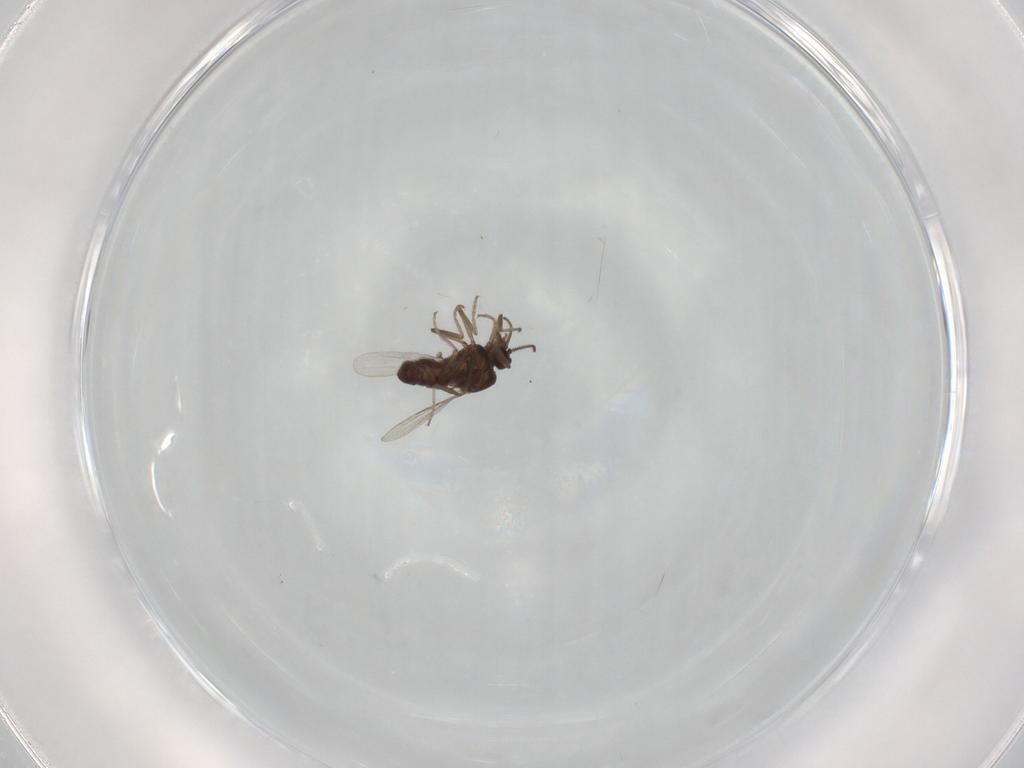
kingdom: Animalia
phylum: Arthropoda
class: Insecta
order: Diptera
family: Ceratopogonidae
